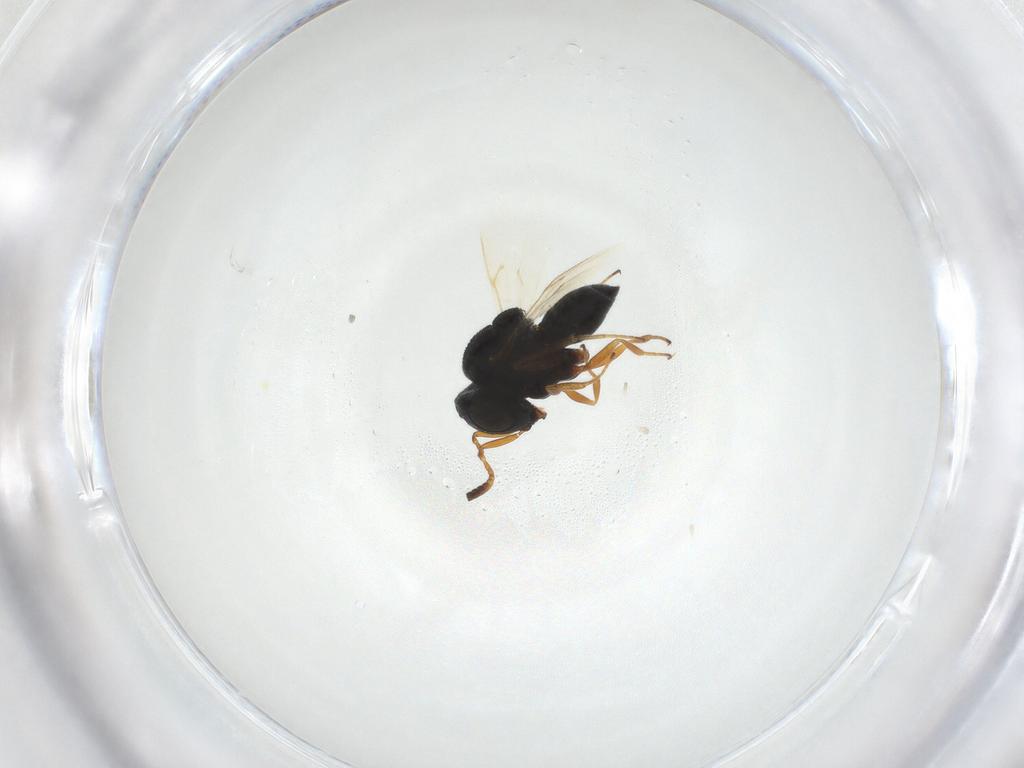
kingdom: Animalia
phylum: Arthropoda
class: Insecta
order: Hymenoptera
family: Scelionidae
